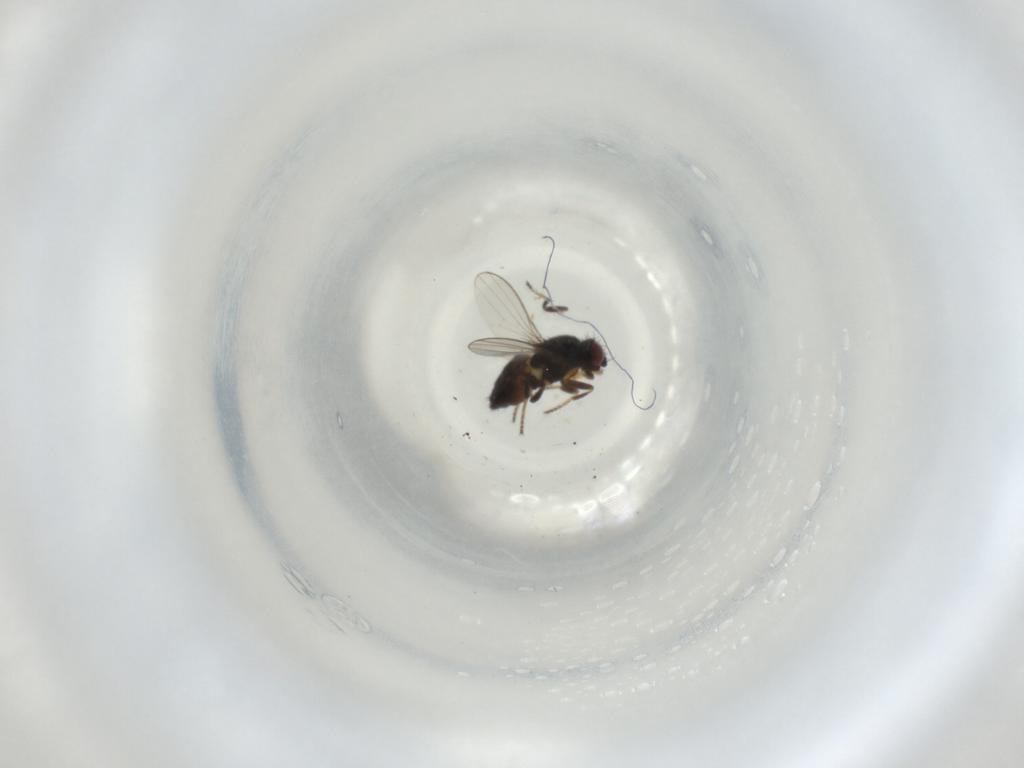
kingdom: Animalia
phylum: Arthropoda
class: Insecta
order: Diptera
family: Milichiidae
